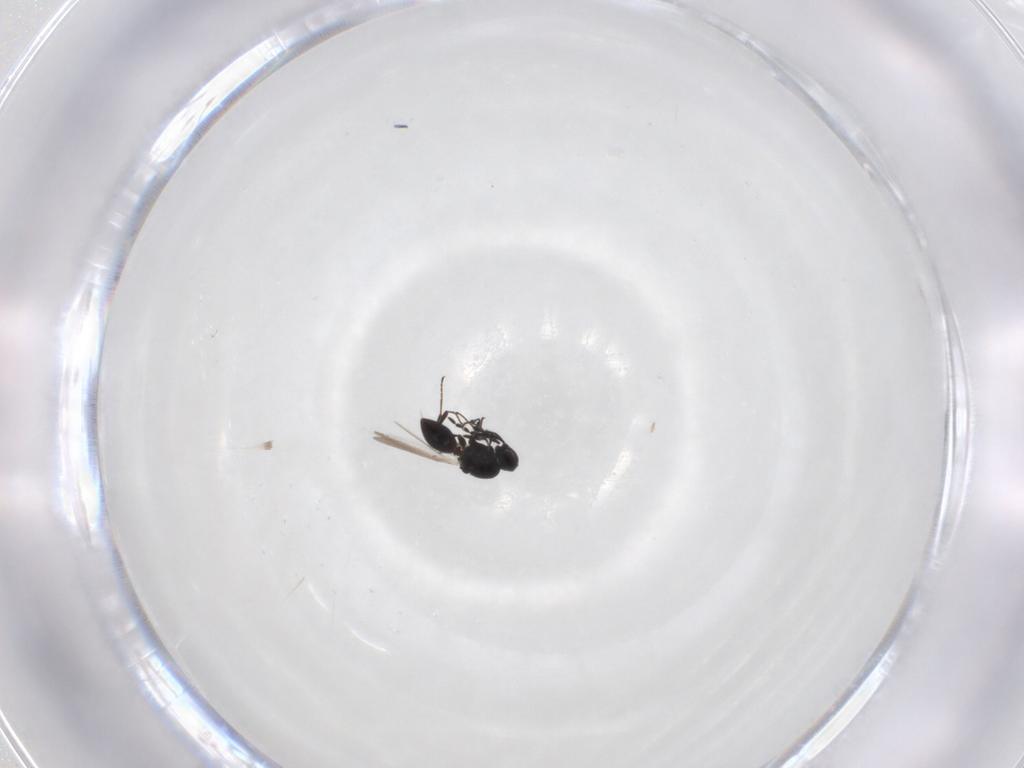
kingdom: Animalia
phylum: Arthropoda
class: Insecta
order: Hymenoptera
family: Platygastridae
